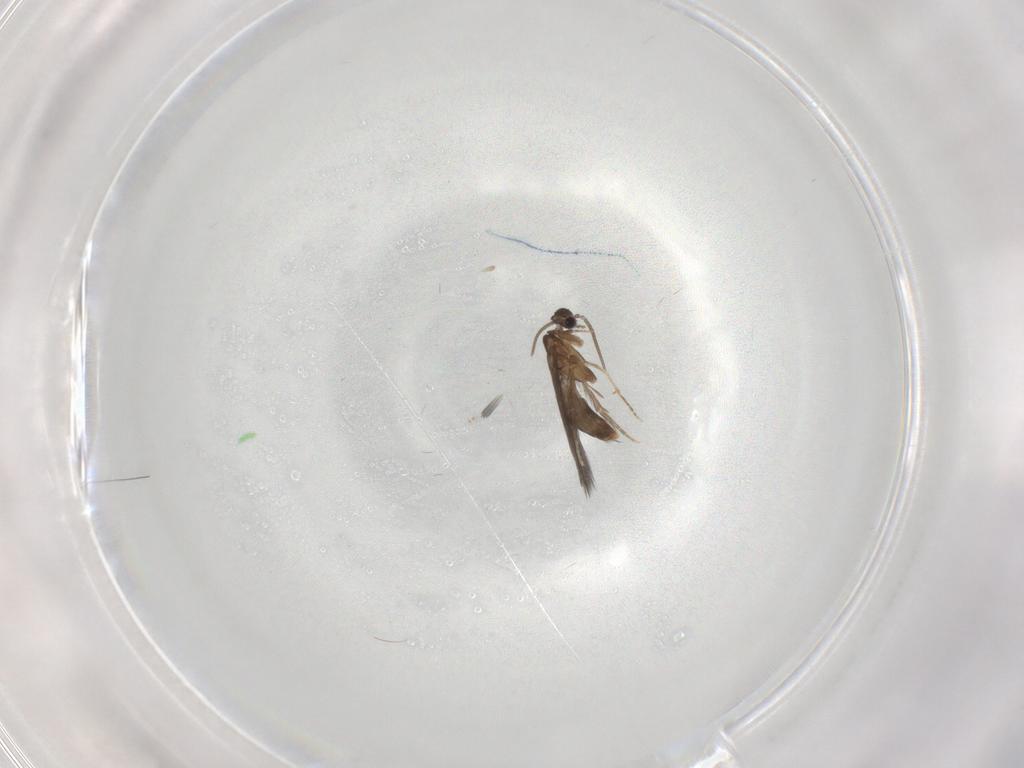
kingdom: Animalia
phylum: Arthropoda
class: Insecta
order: Trichoptera
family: Hydroptilidae
